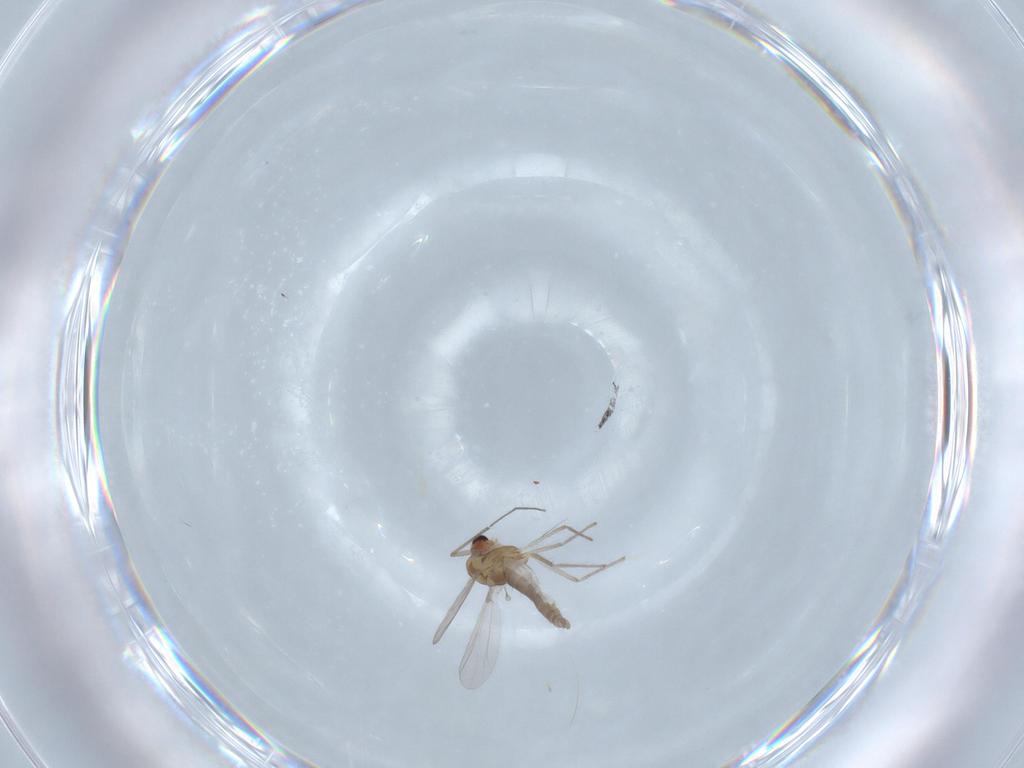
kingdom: Animalia
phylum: Arthropoda
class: Insecta
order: Diptera
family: Chironomidae
